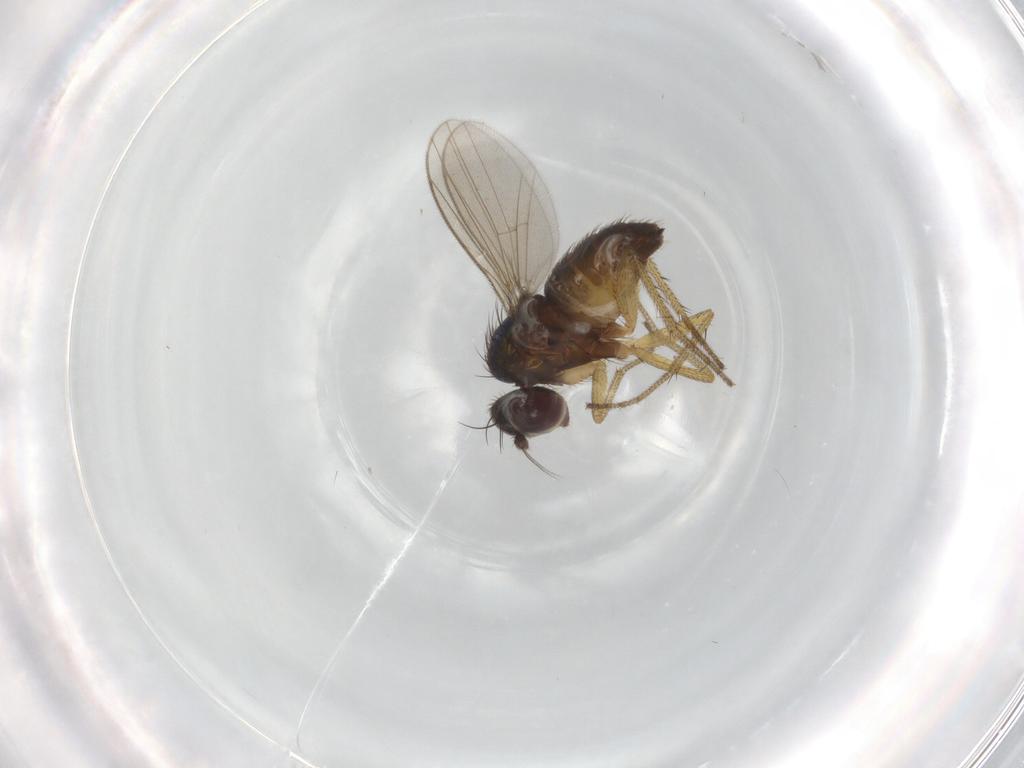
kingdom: Animalia
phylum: Arthropoda
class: Insecta
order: Diptera
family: Dolichopodidae
